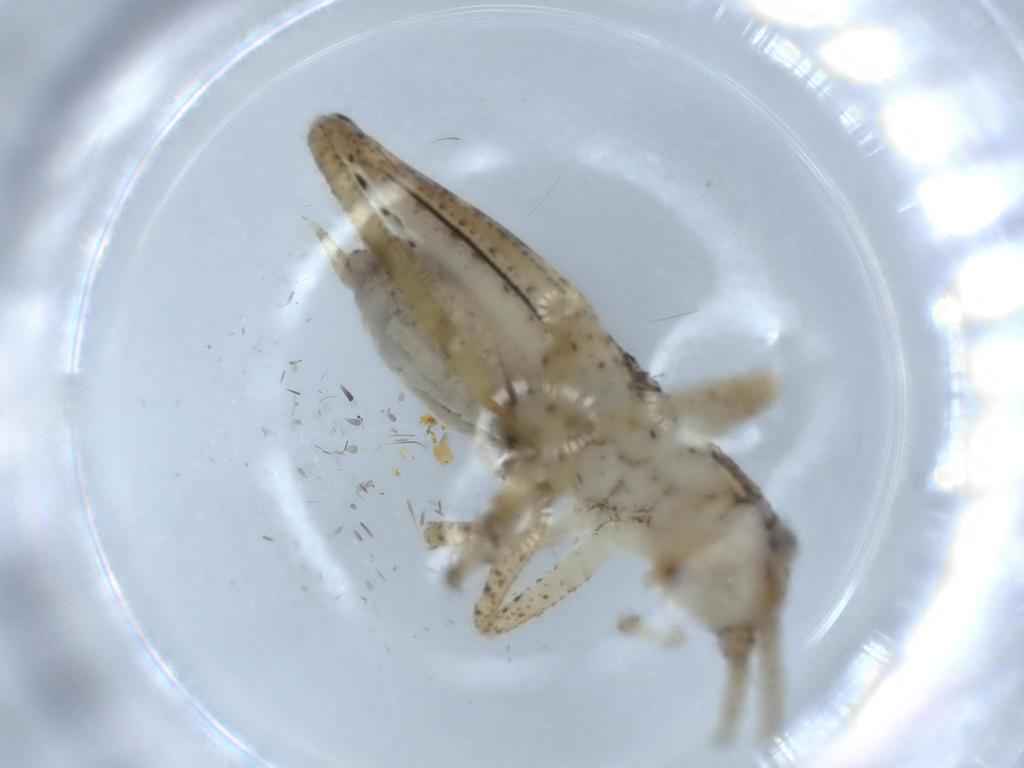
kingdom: Animalia
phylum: Arthropoda
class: Insecta
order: Orthoptera
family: Gryllidae
